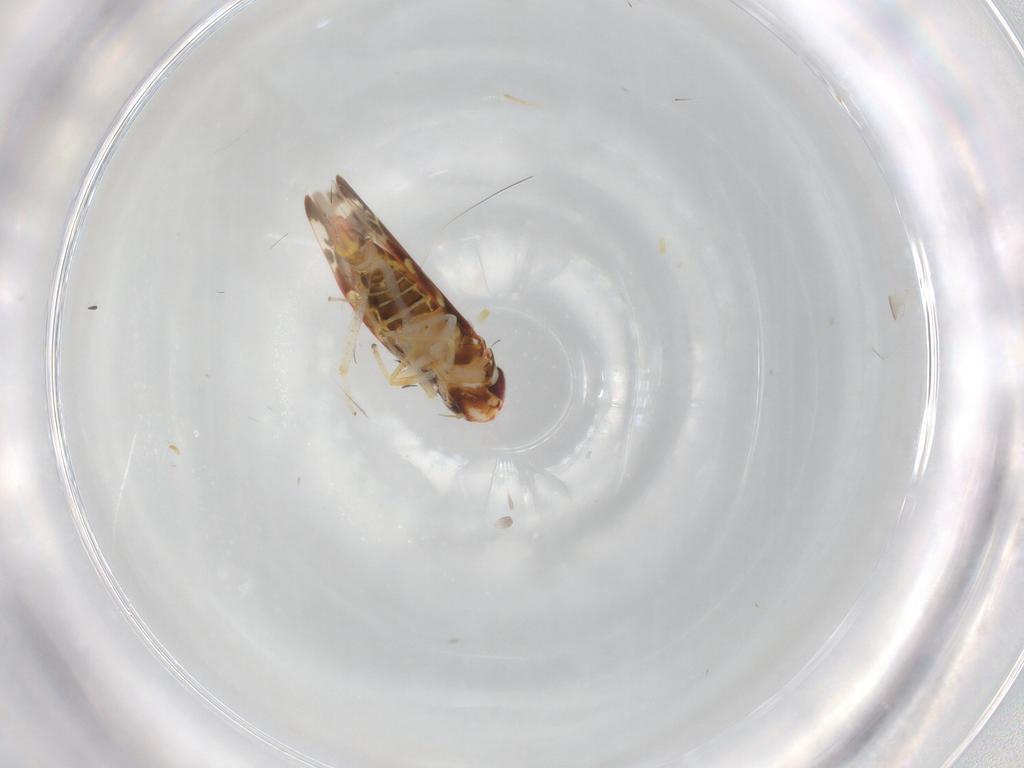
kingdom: Animalia
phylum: Arthropoda
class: Insecta
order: Hemiptera
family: Cicadellidae
